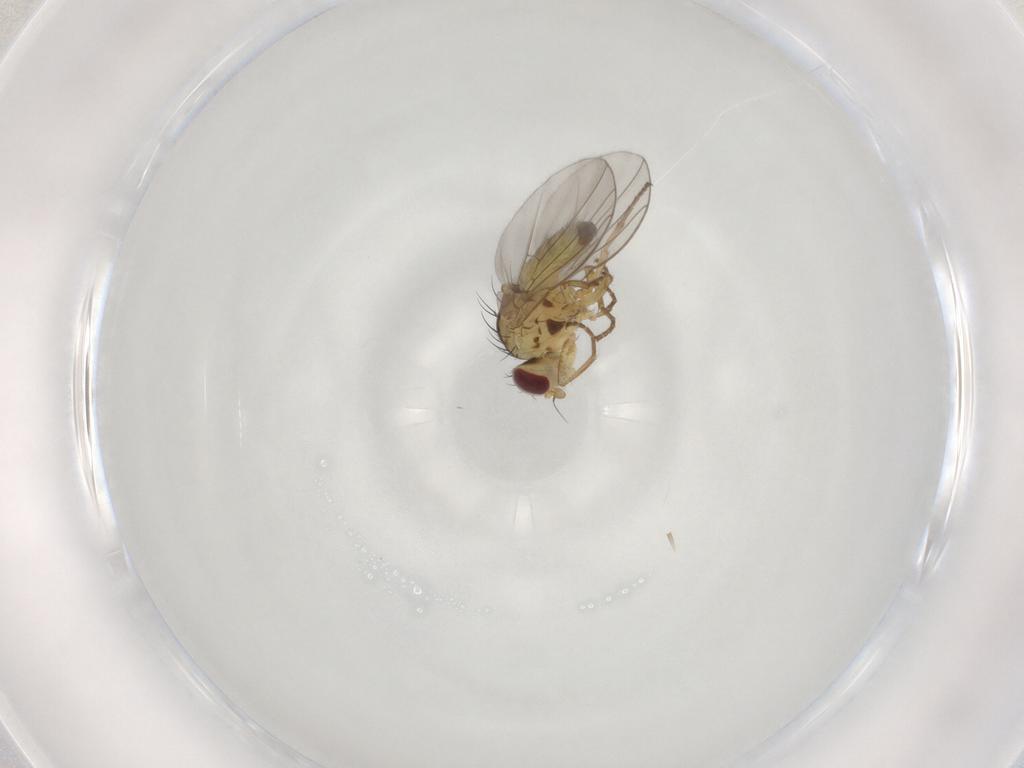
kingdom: Animalia
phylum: Arthropoda
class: Insecta
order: Diptera
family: Agromyzidae
